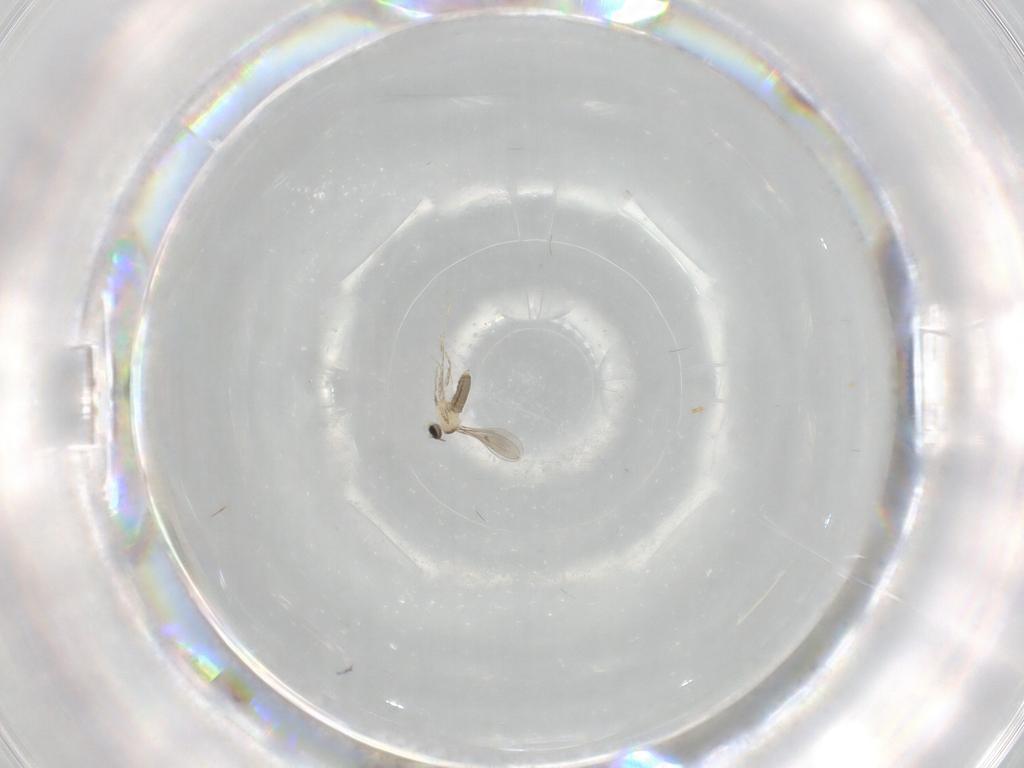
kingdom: Animalia
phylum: Arthropoda
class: Insecta
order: Diptera
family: Cecidomyiidae
